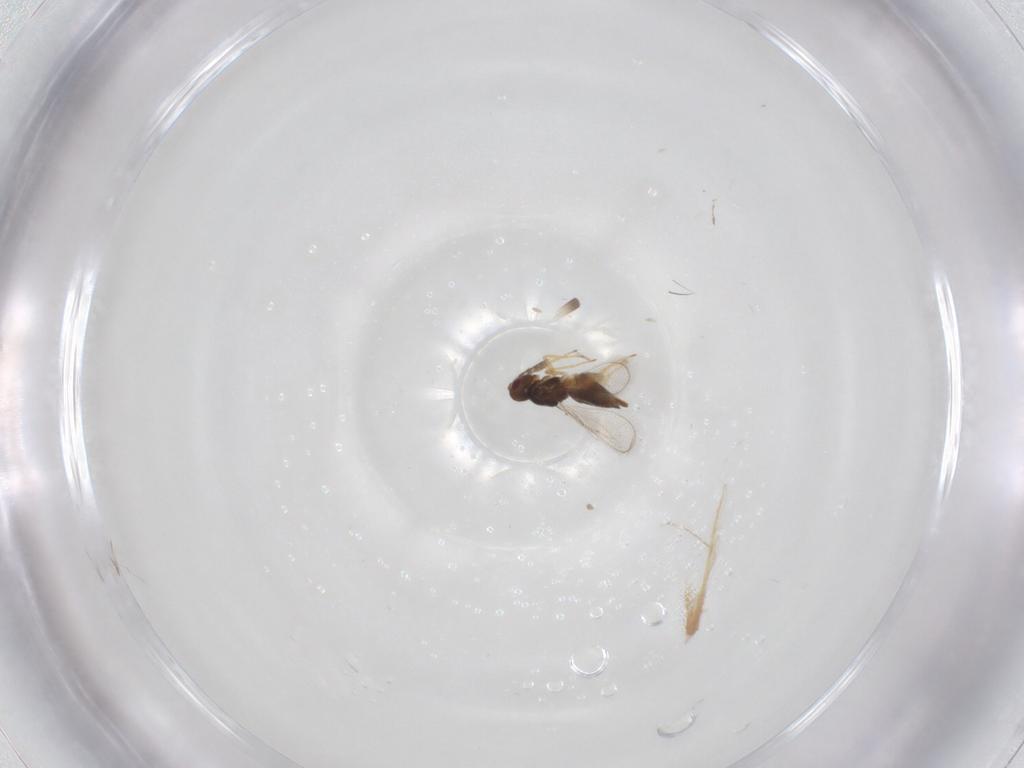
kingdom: Animalia
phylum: Arthropoda
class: Insecta
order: Hymenoptera
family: Eulophidae
